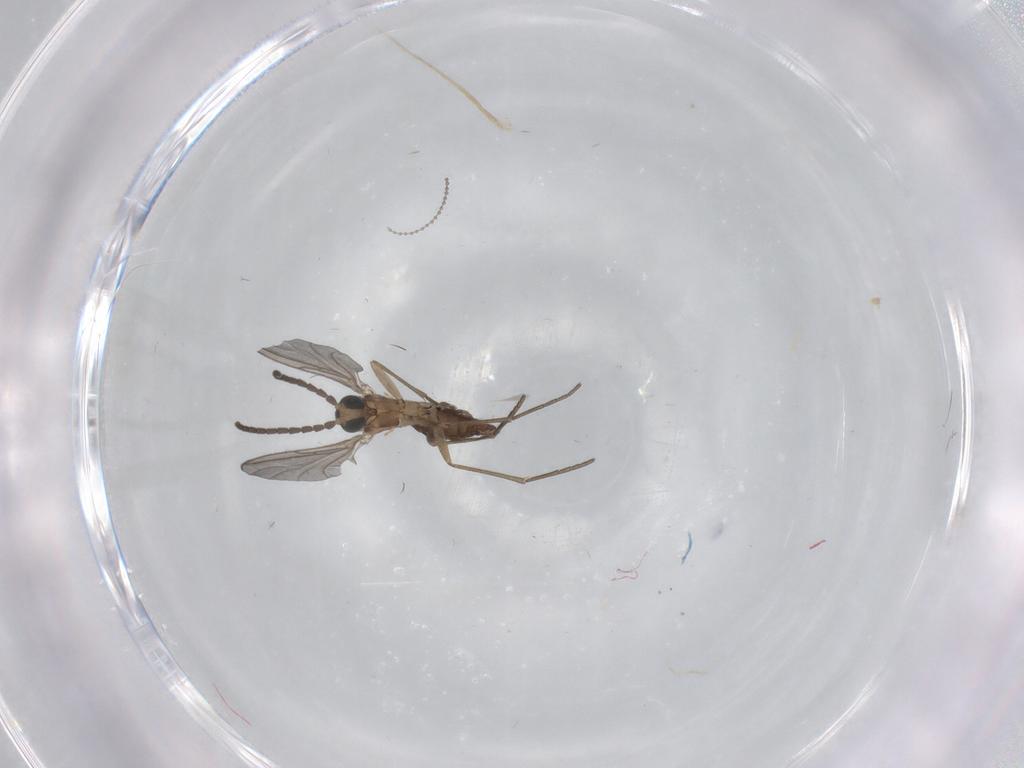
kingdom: Animalia
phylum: Arthropoda
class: Insecta
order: Diptera
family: Sciaridae
